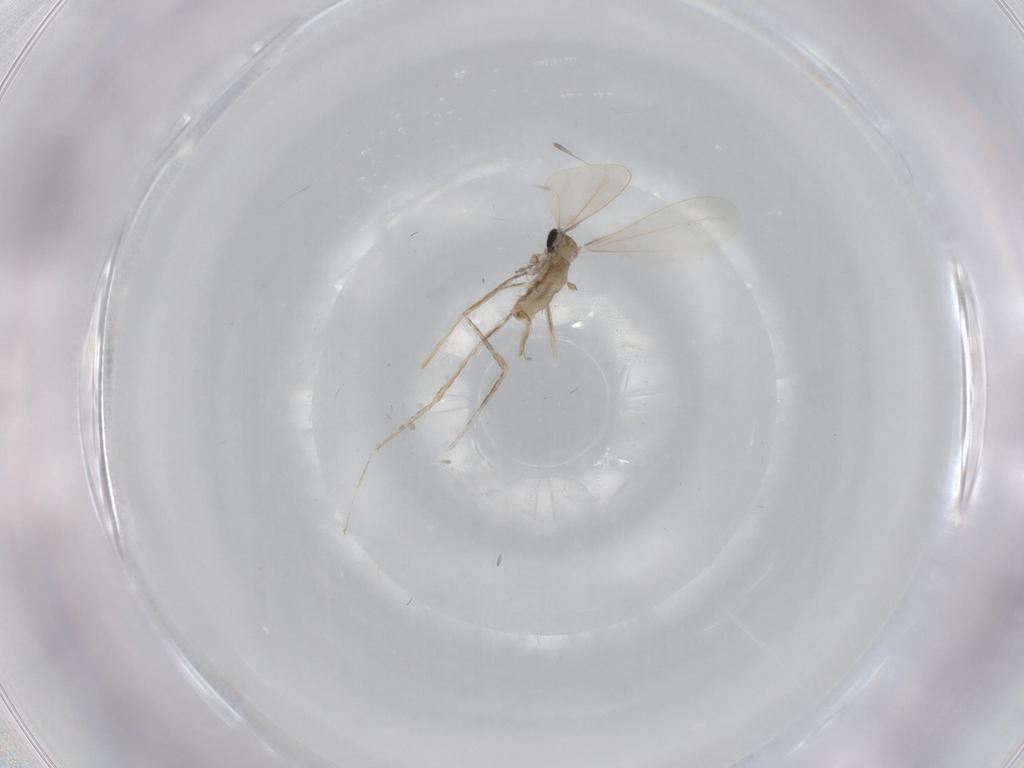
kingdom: Animalia
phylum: Arthropoda
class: Insecta
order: Diptera
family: Cecidomyiidae
